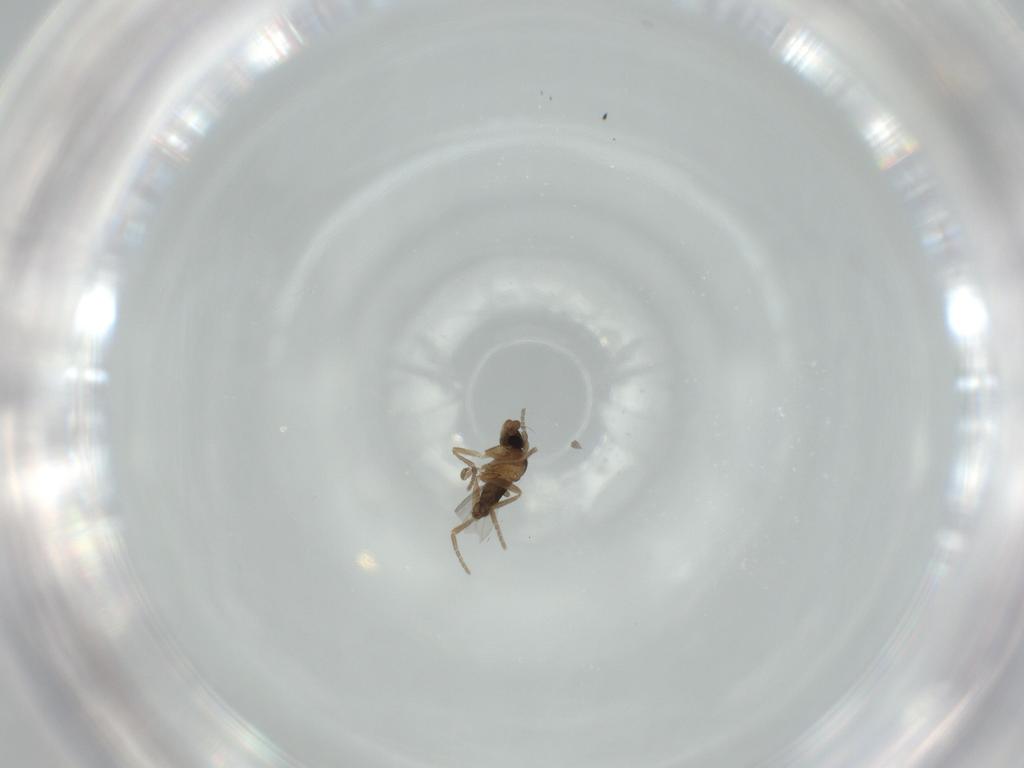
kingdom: Animalia
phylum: Arthropoda
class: Insecta
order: Diptera
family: Phoridae
